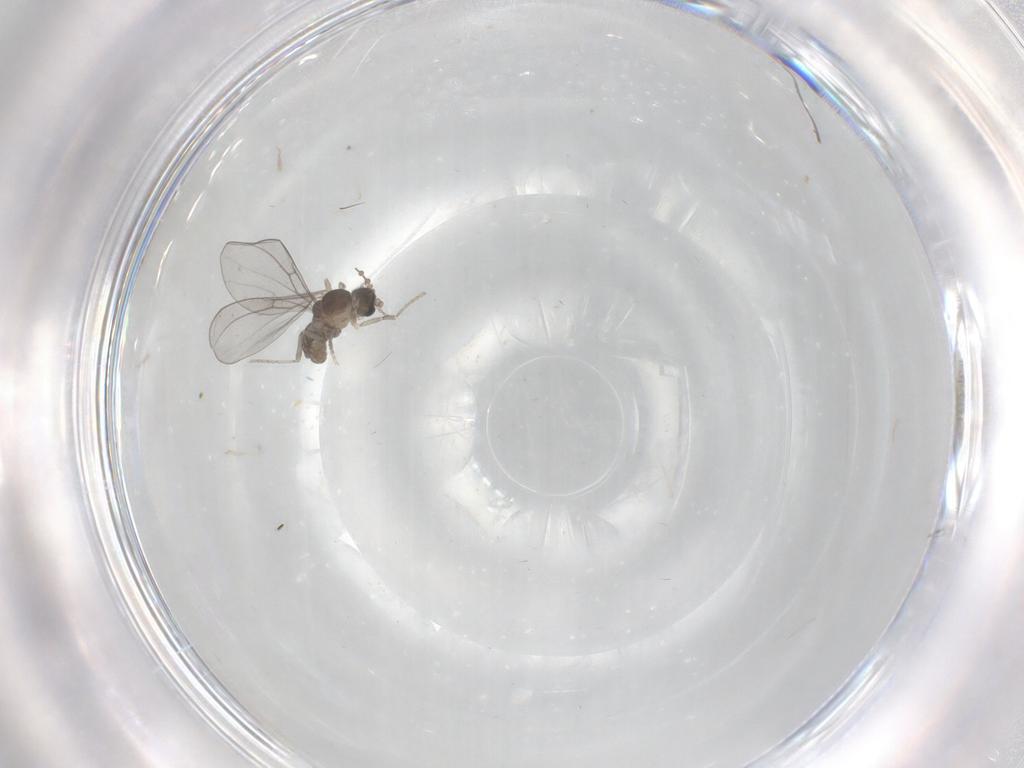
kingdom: Animalia
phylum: Arthropoda
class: Insecta
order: Diptera
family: Cecidomyiidae
